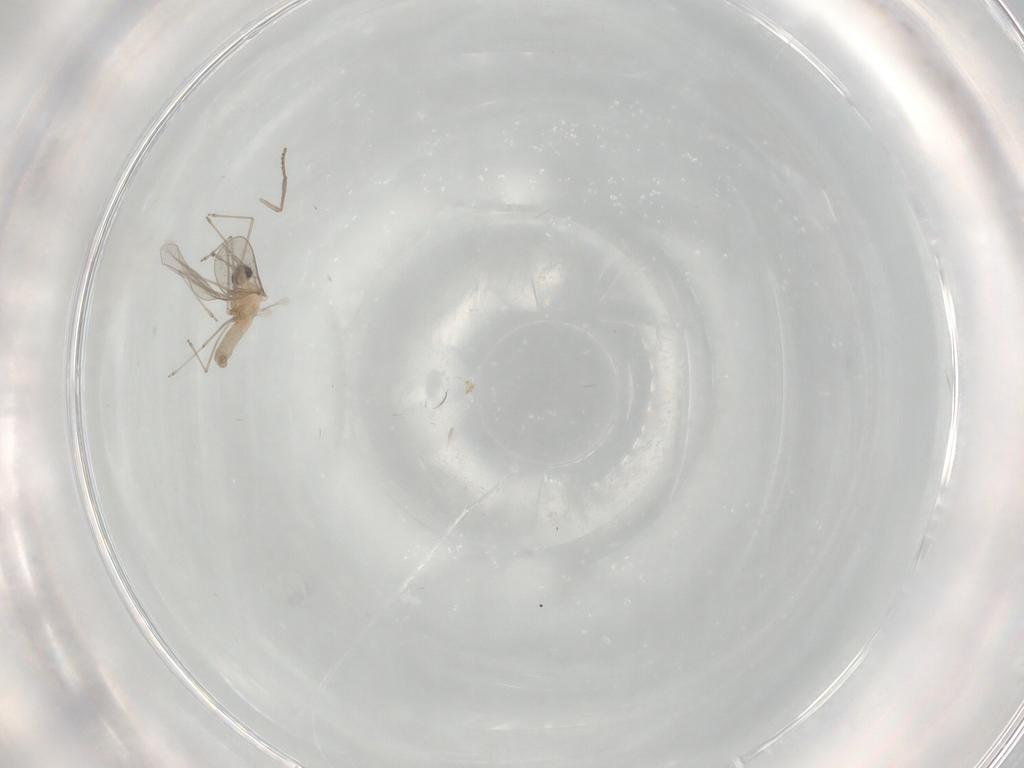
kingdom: Animalia
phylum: Arthropoda
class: Insecta
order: Diptera
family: Cecidomyiidae
